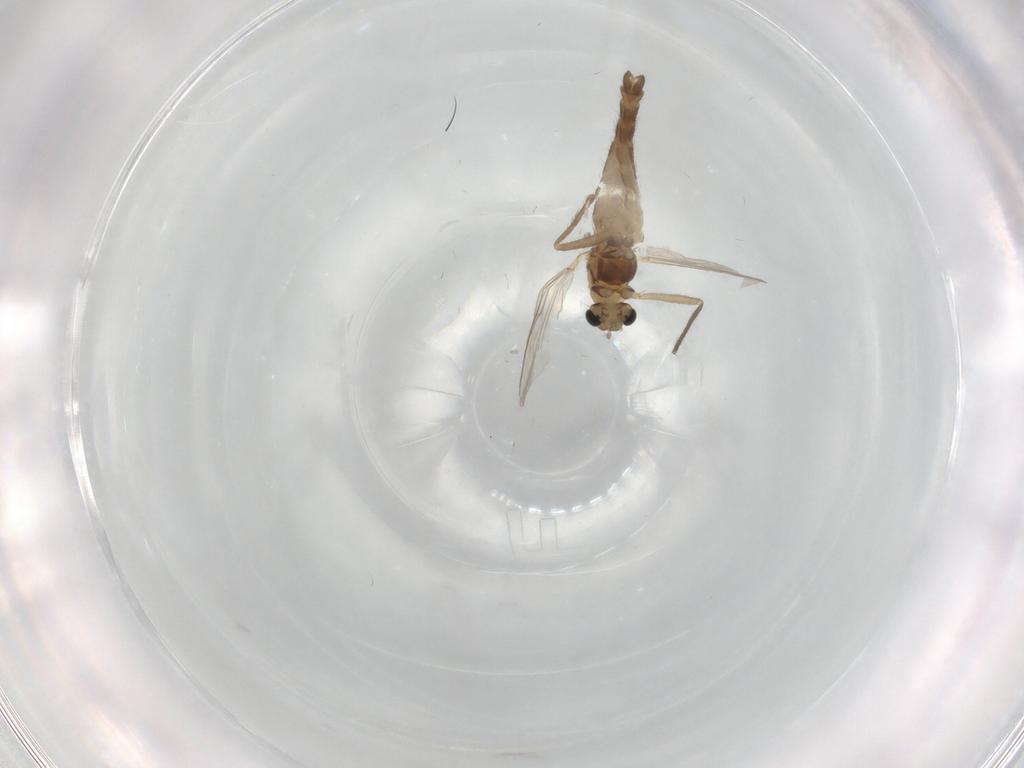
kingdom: Animalia
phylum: Arthropoda
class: Insecta
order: Diptera
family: Chironomidae
